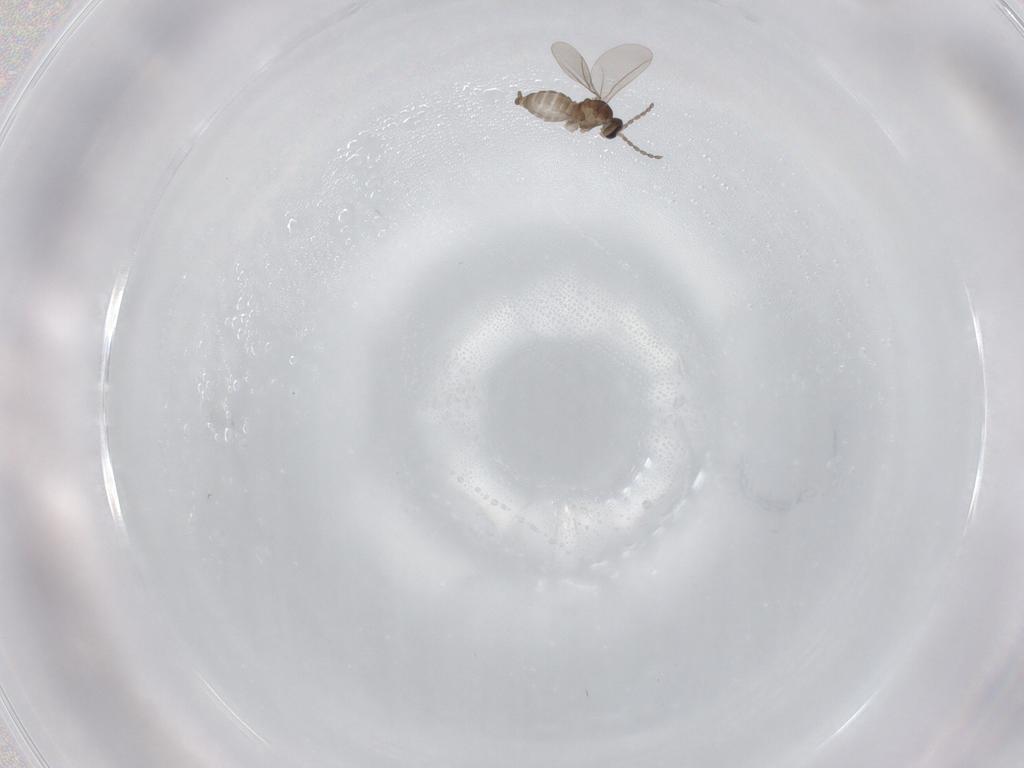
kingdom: Animalia
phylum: Arthropoda
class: Insecta
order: Diptera
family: Cecidomyiidae
